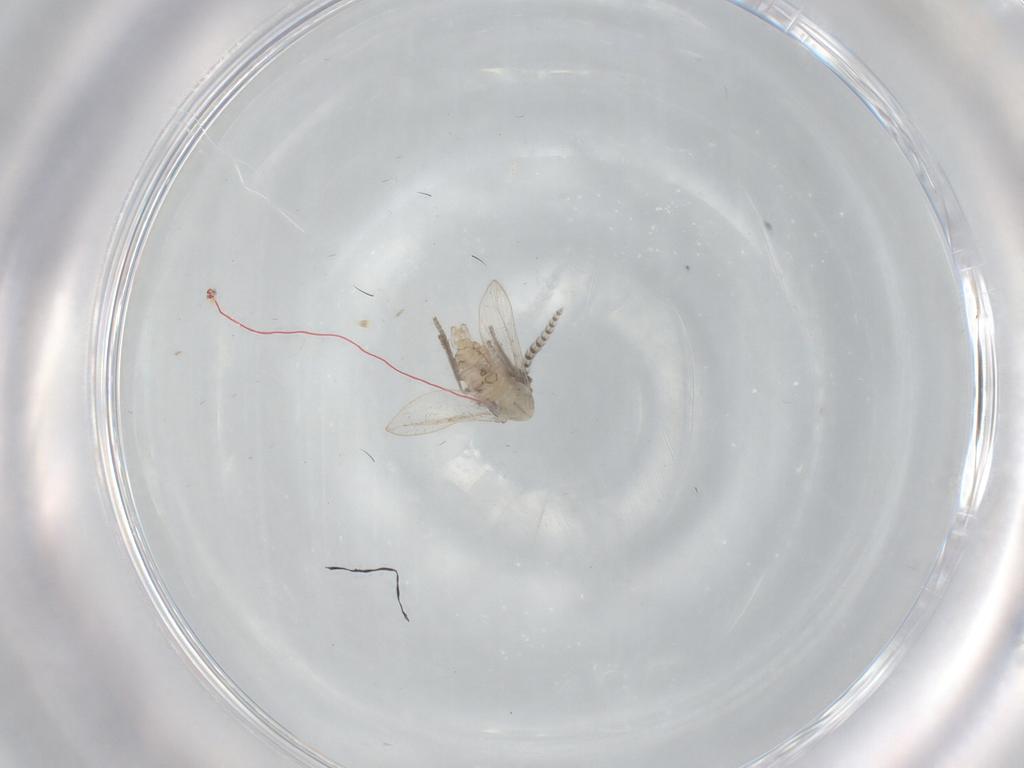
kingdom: Animalia
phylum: Arthropoda
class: Insecta
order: Diptera
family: Psychodidae
